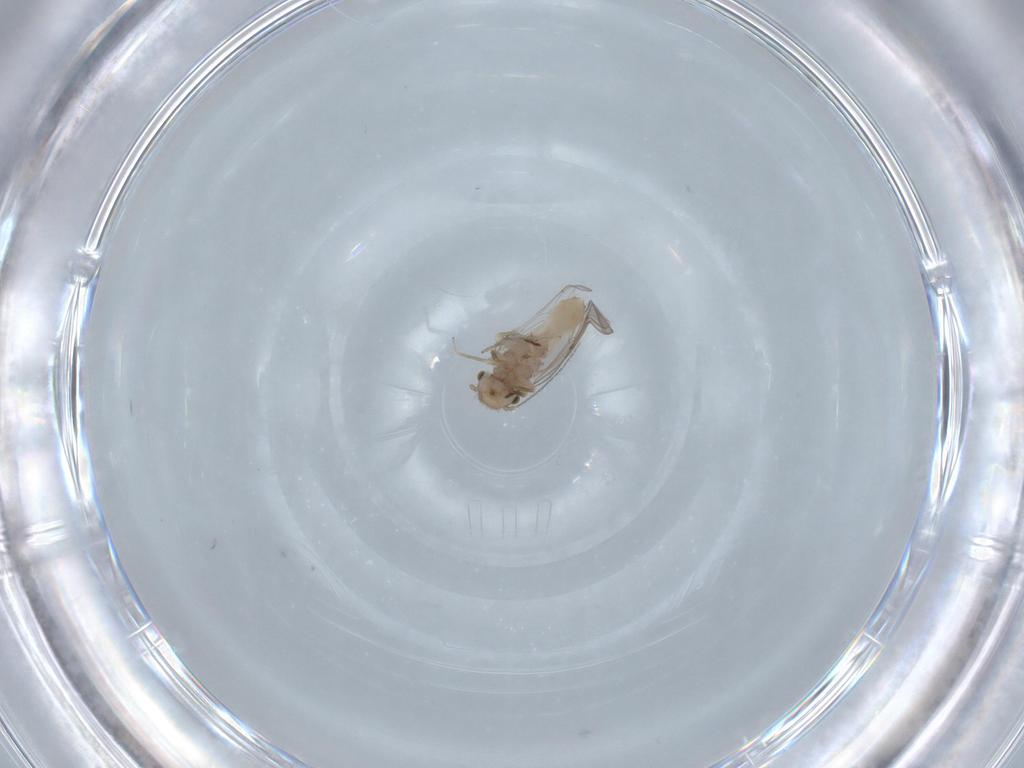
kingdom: Animalia
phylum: Arthropoda
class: Insecta
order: Psocodea
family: Ectopsocidae
